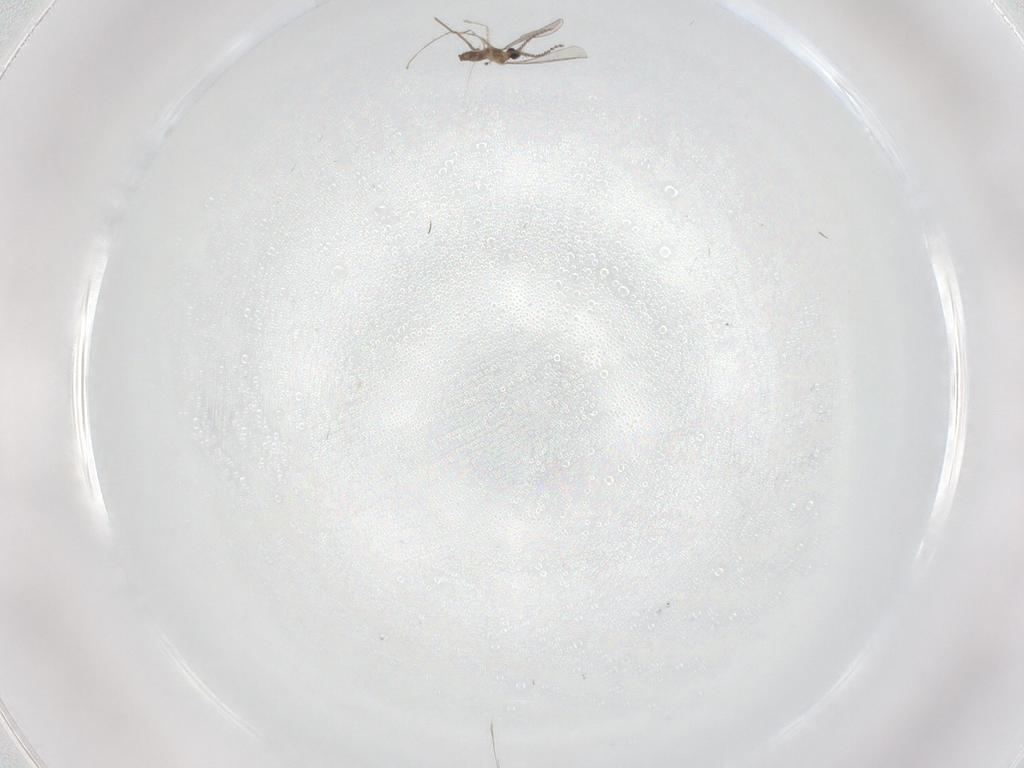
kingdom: Animalia
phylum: Arthropoda
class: Insecta
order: Diptera
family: Cecidomyiidae
